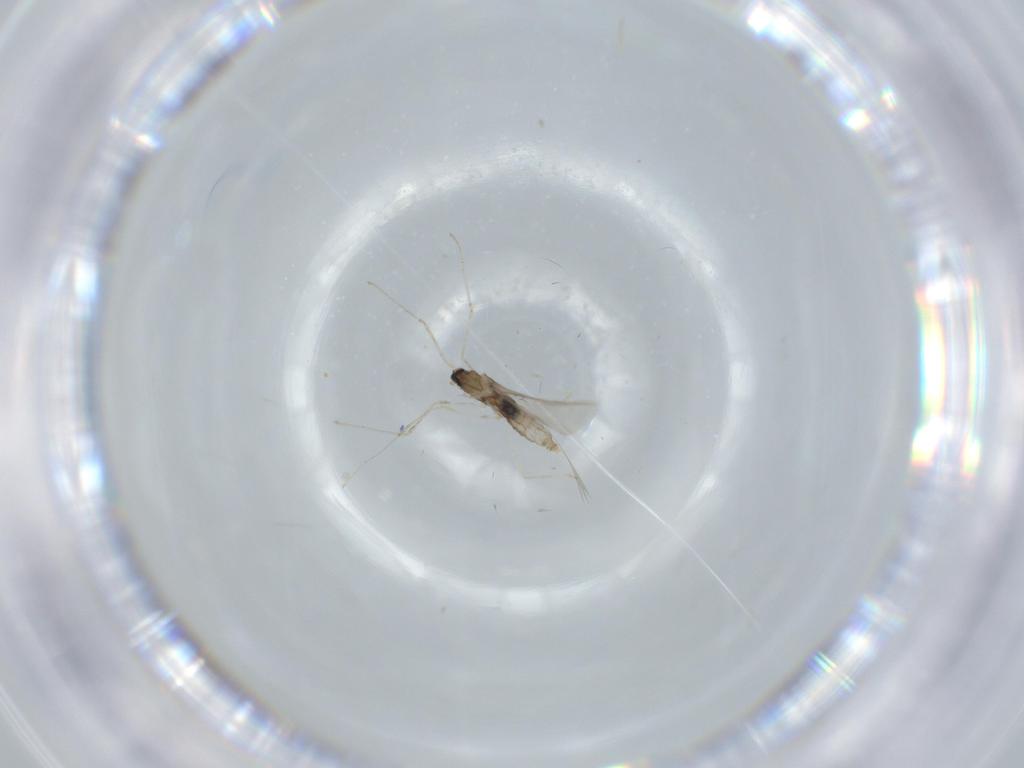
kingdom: Animalia
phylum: Arthropoda
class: Insecta
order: Diptera
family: Cecidomyiidae
